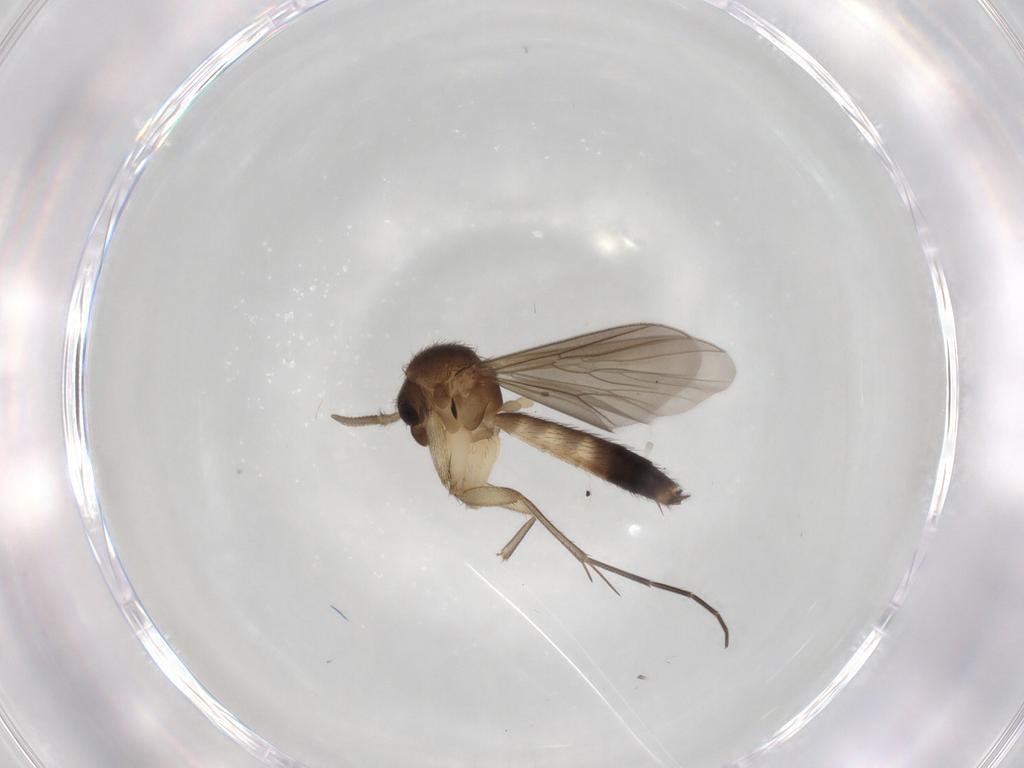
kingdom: Animalia
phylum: Arthropoda
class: Insecta
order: Diptera
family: Mycetophilidae
